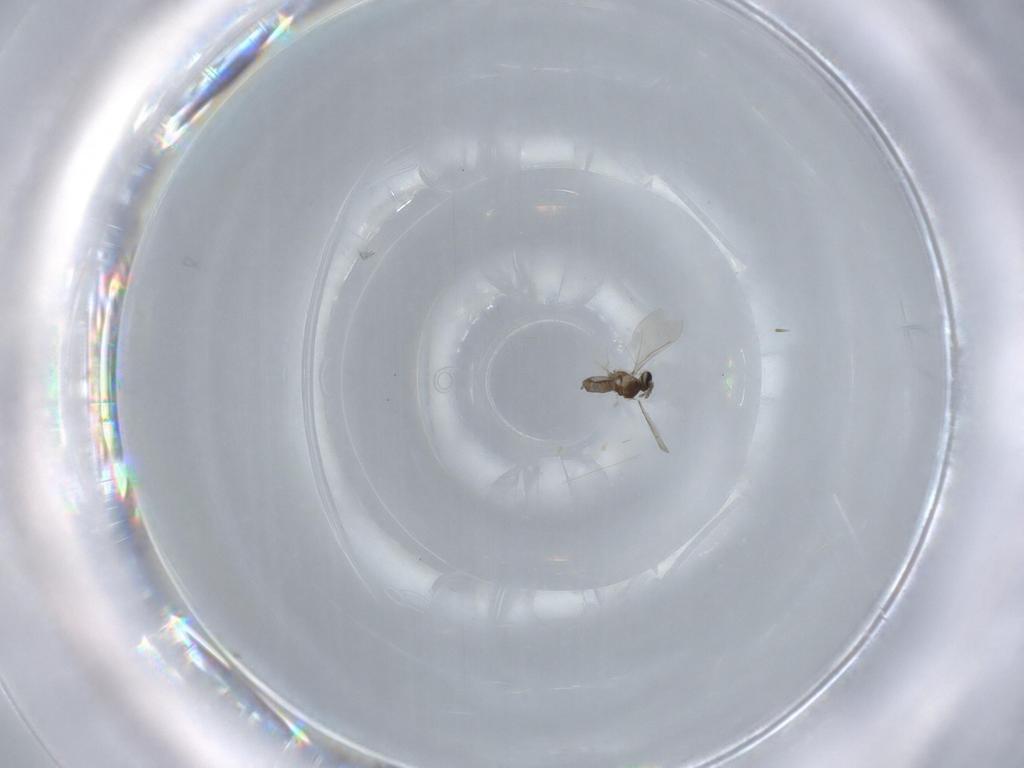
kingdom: Animalia
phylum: Arthropoda
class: Insecta
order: Diptera
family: Cecidomyiidae
